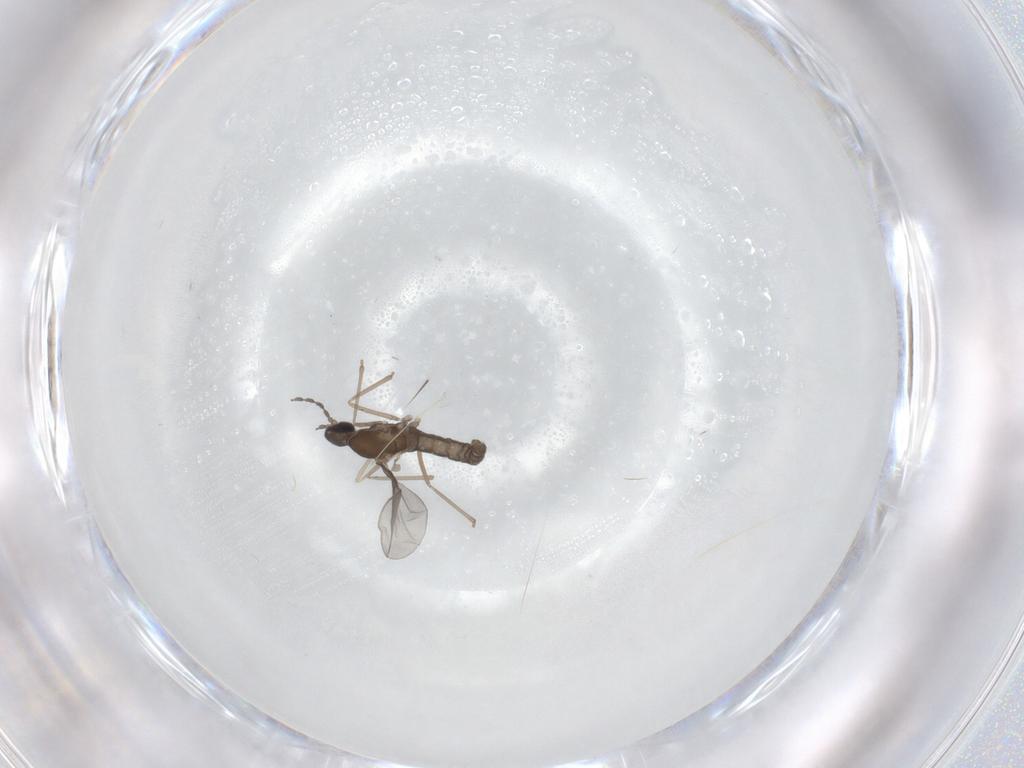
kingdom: Animalia
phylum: Arthropoda
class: Insecta
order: Diptera
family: Cecidomyiidae
